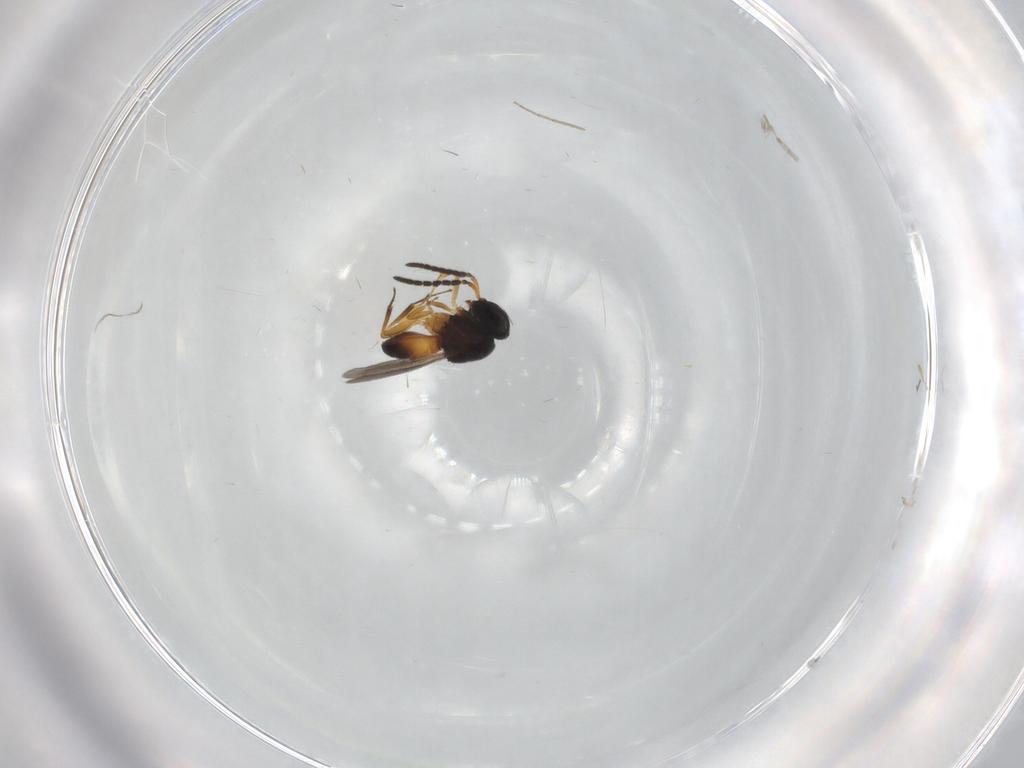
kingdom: Animalia
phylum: Arthropoda
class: Insecta
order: Hymenoptera
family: Scelionidae
